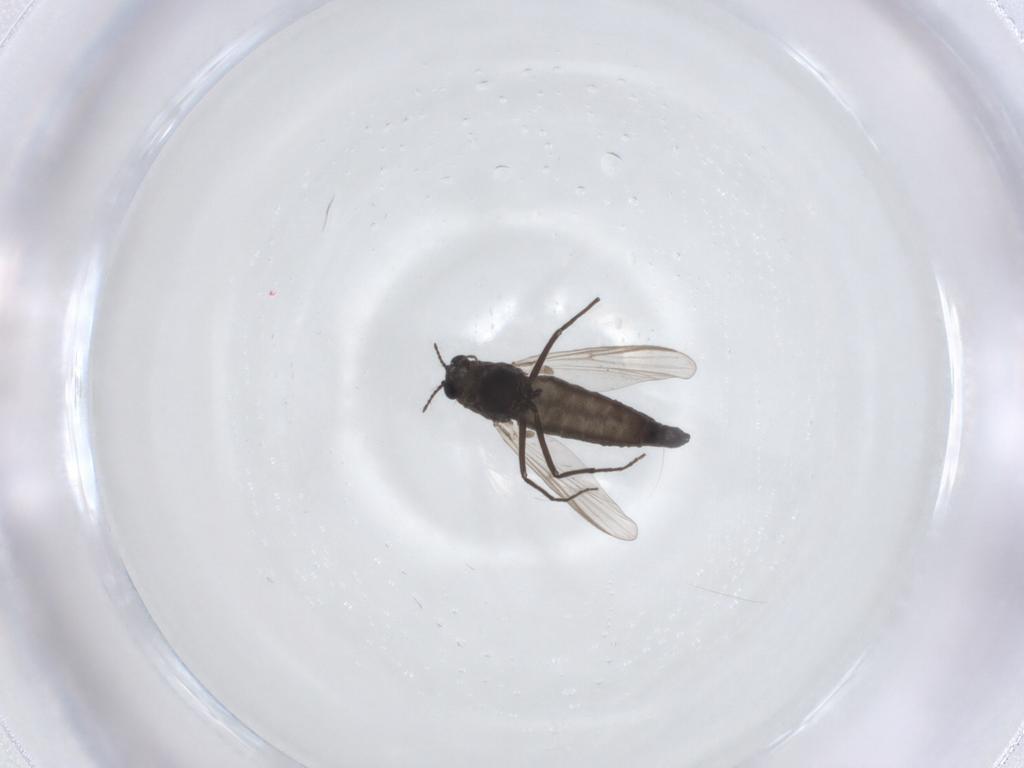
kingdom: Animalia
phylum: Arthropoda
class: Insecta
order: Diptera
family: Chironomidae
